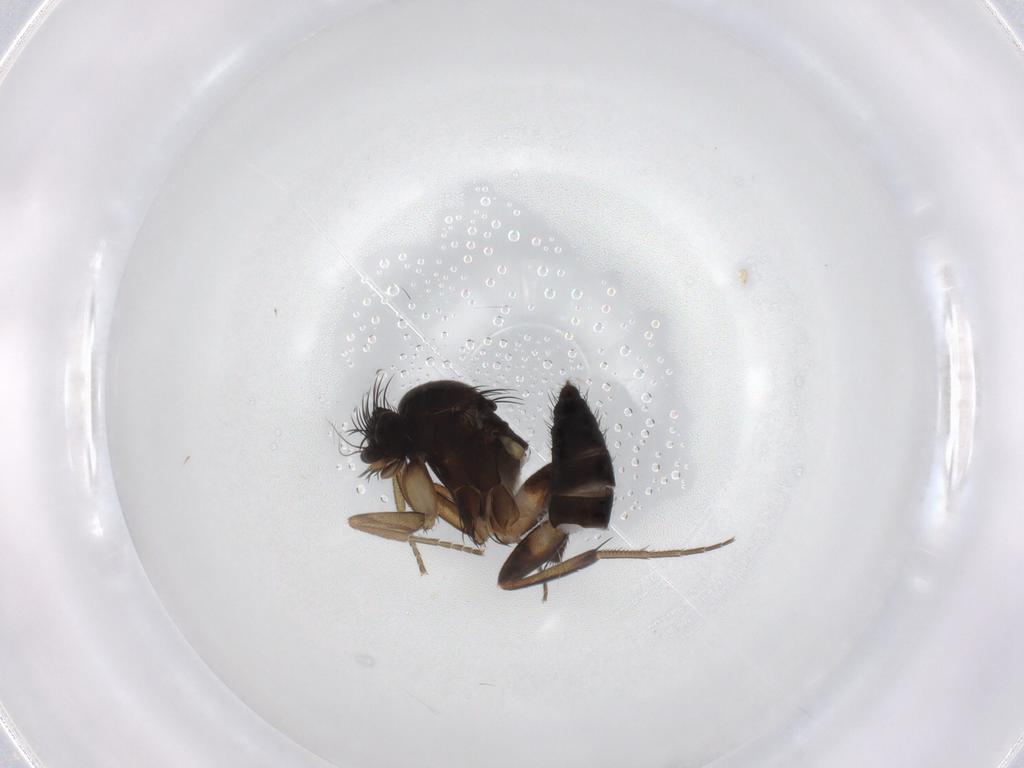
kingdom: Animalia
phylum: Arthropoda
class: Insecta
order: Diptera
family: Phoridae
